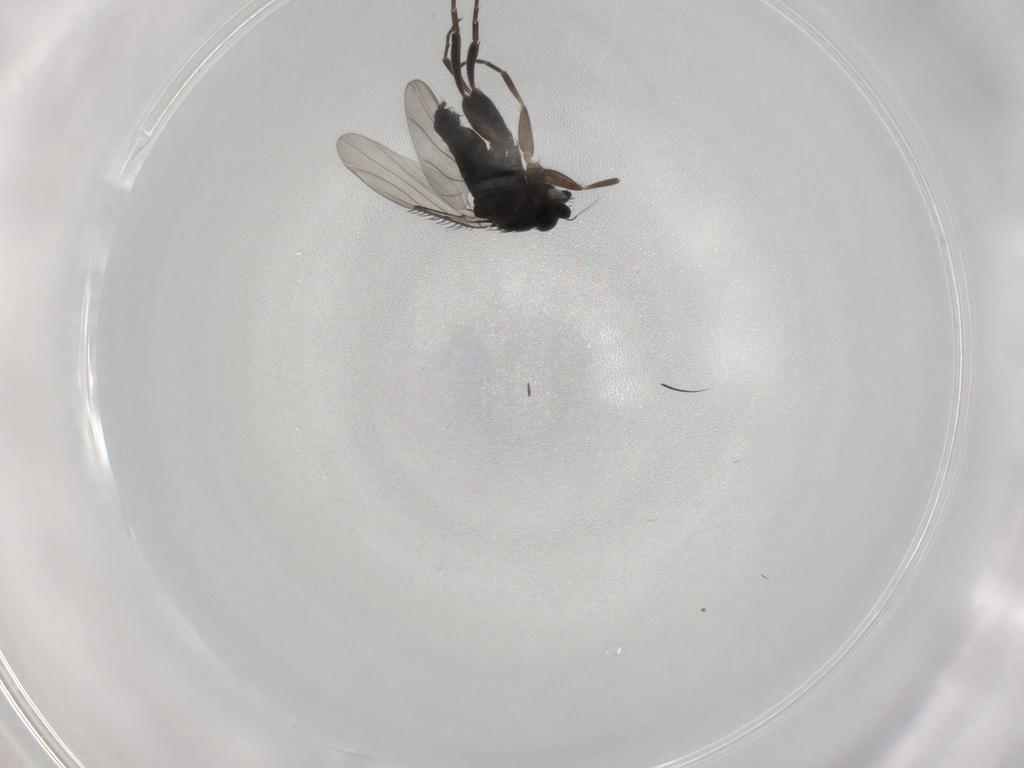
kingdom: Animalia
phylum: Arthropoda
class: Insecta
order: Diptera
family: Phoridae
